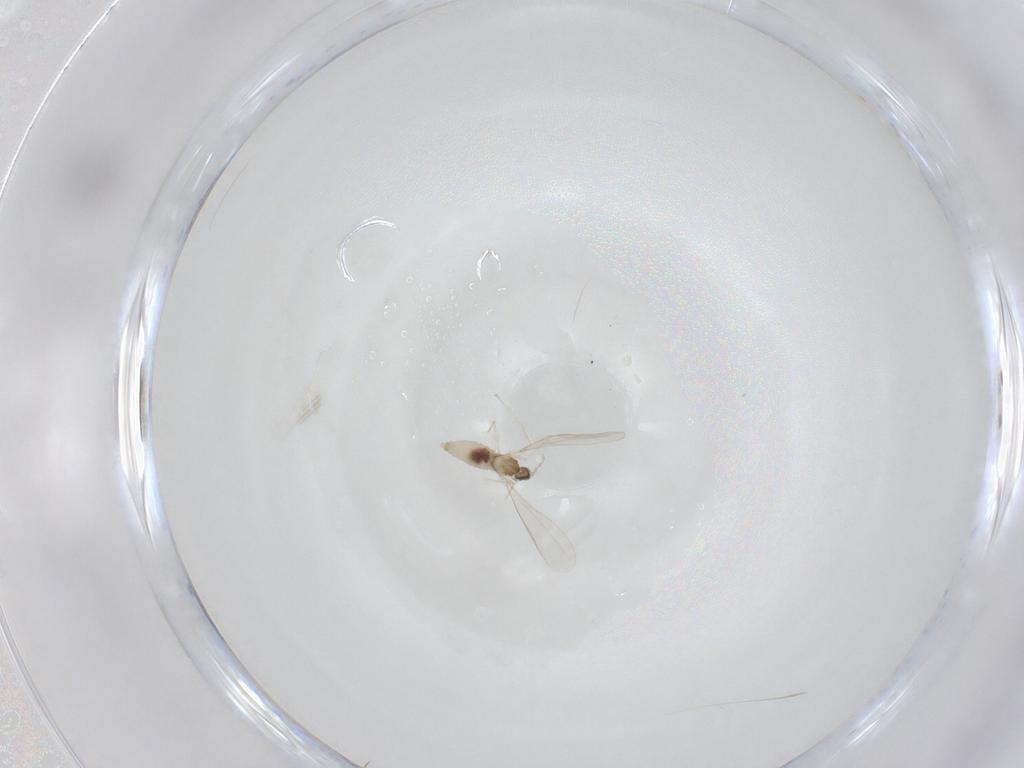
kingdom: Animalia
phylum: Arthropoda
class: Insecta
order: Diptera
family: Cecidomyiidae
